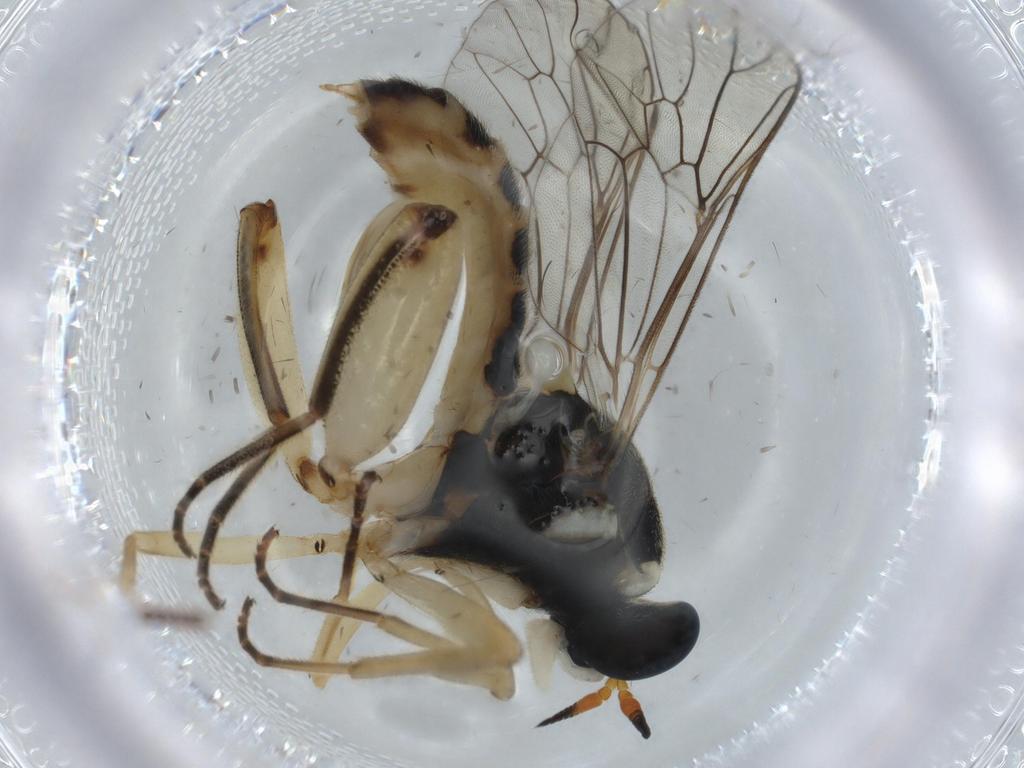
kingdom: Animalia
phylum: Arthropoda
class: Insecta
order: Diptera
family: Sciaridae
